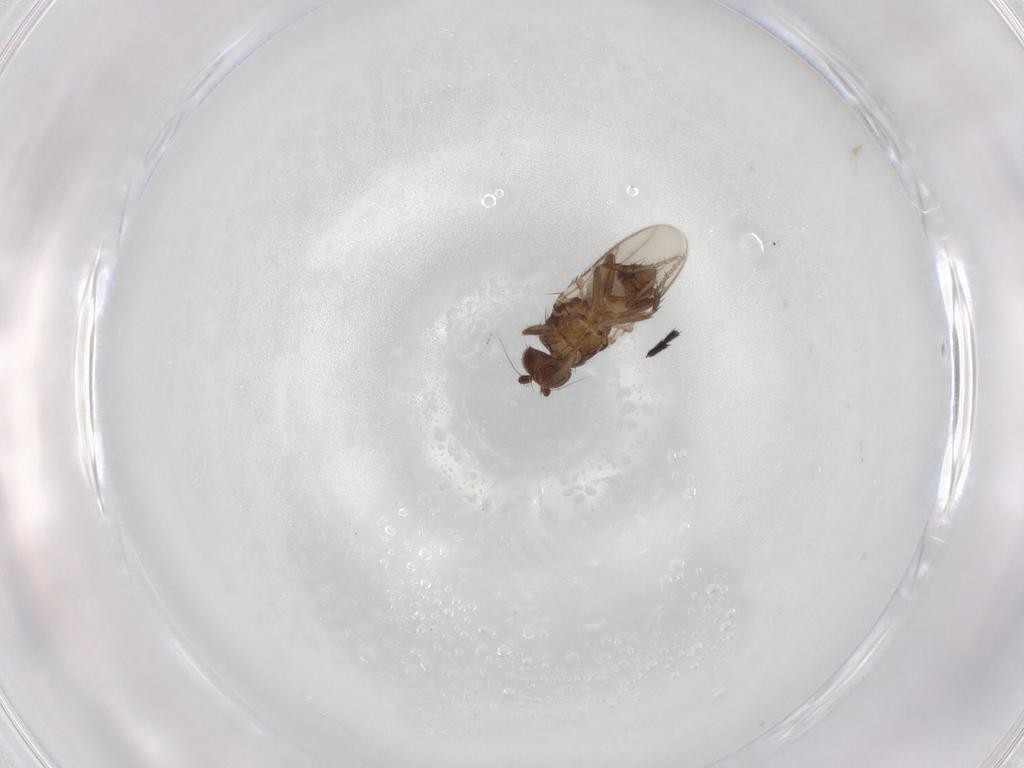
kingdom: Animalia
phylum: Arthropoda
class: Insecta
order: Diptera
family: Sphaeroceridae
